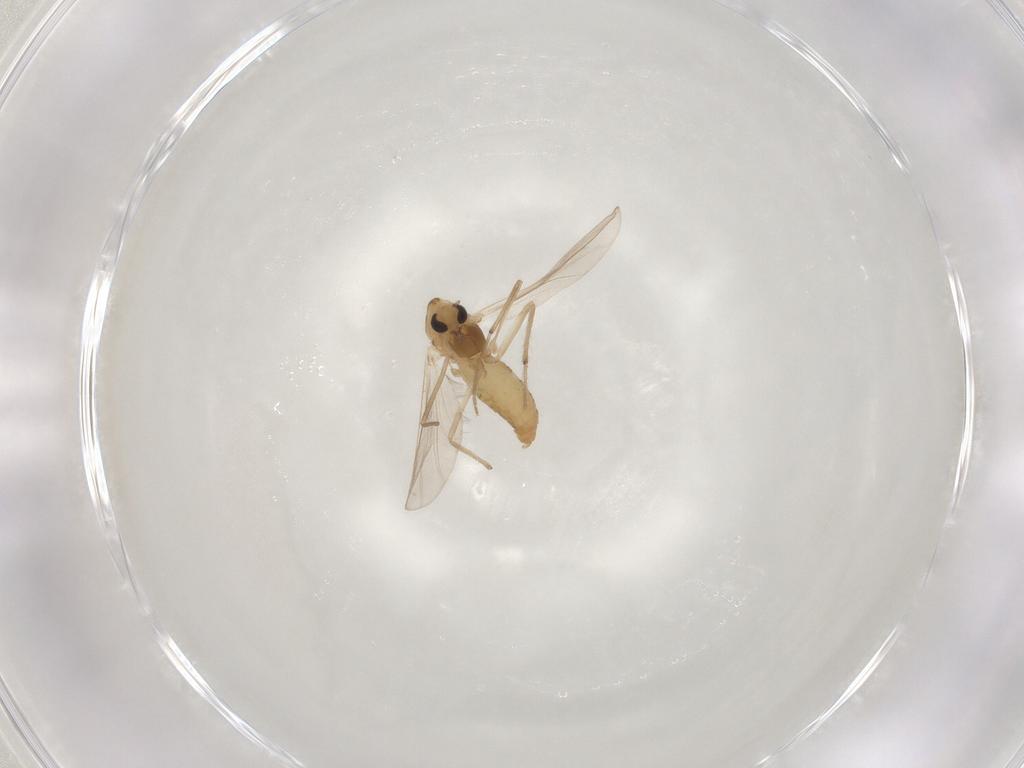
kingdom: Animalia
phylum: Arthropoda
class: Insecta
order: Diptera
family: Chironomidae
